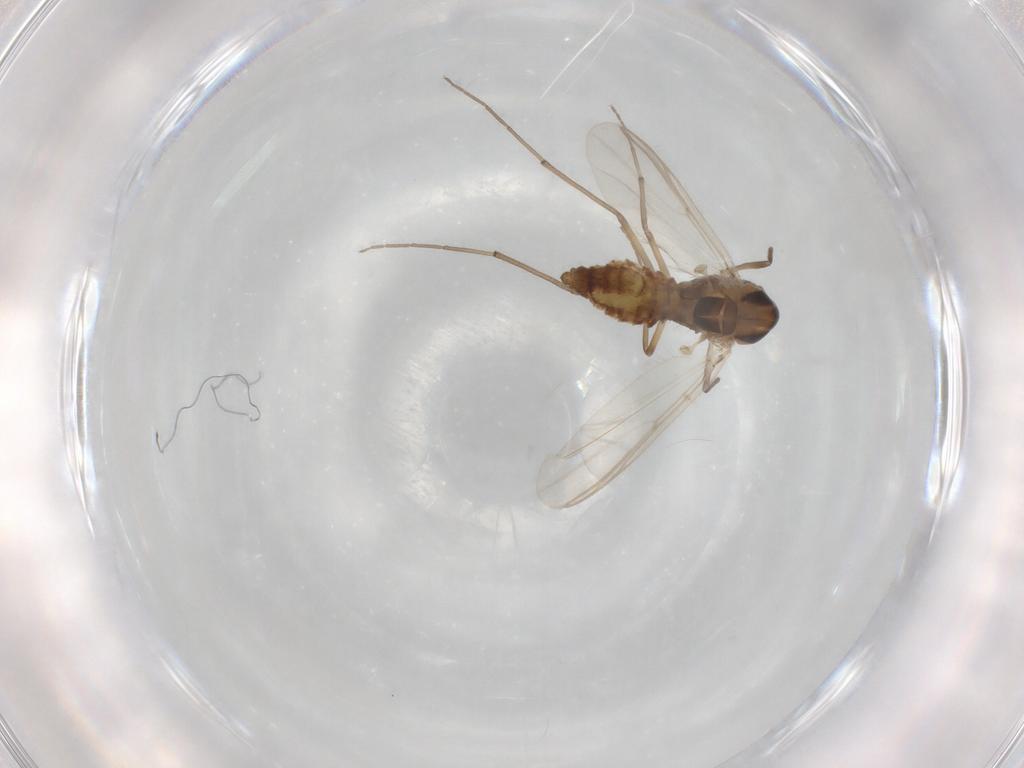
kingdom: Animalia
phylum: Arthropoda
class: Insecta
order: Diptera
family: Chironomidae
